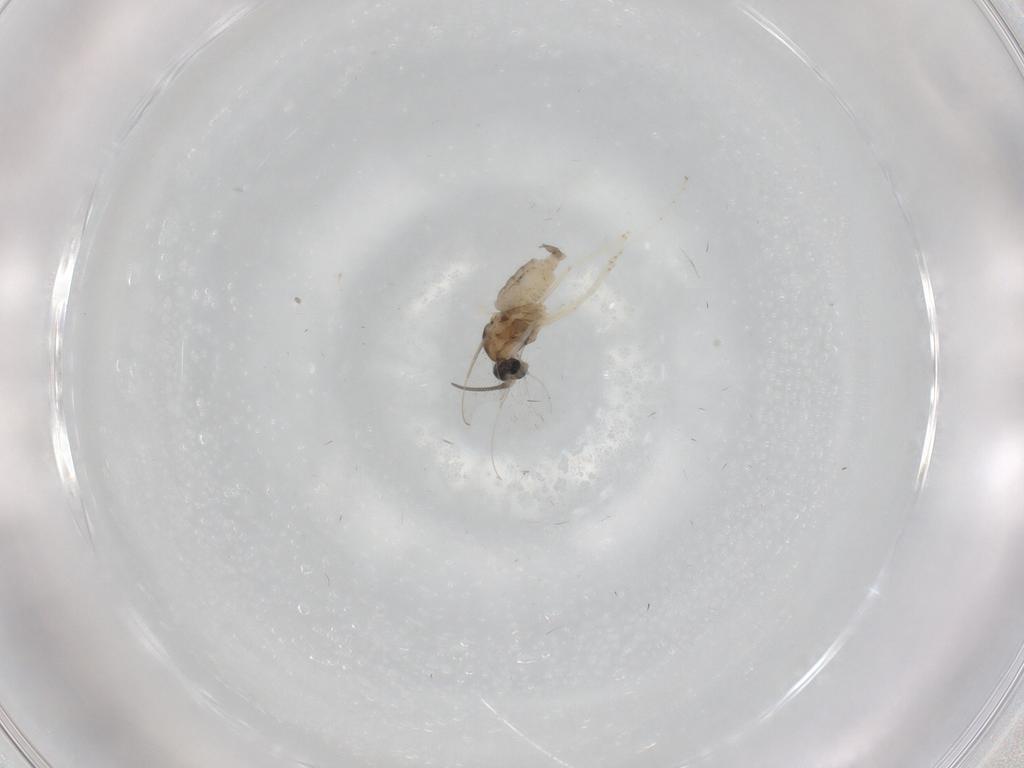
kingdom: Animalia
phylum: Arthropoda
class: Insecta
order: Diptera
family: Cecidomyiidae
